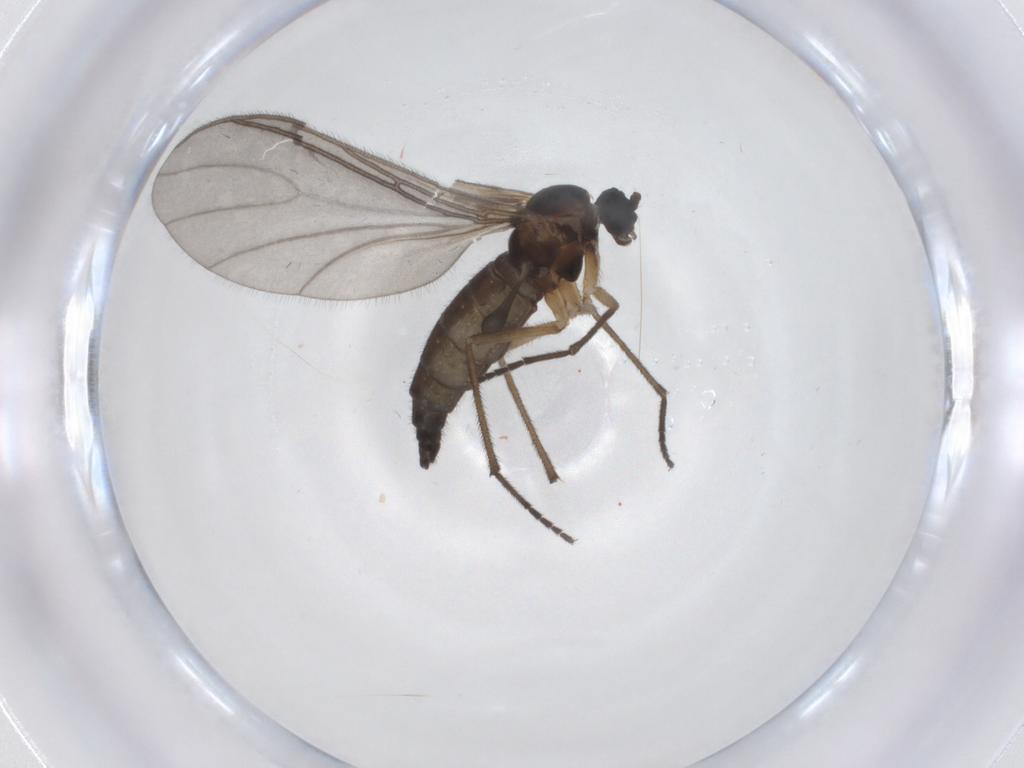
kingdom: Animalia
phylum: Arthropoda
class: Insecta
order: Diptera
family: Sciaridae
